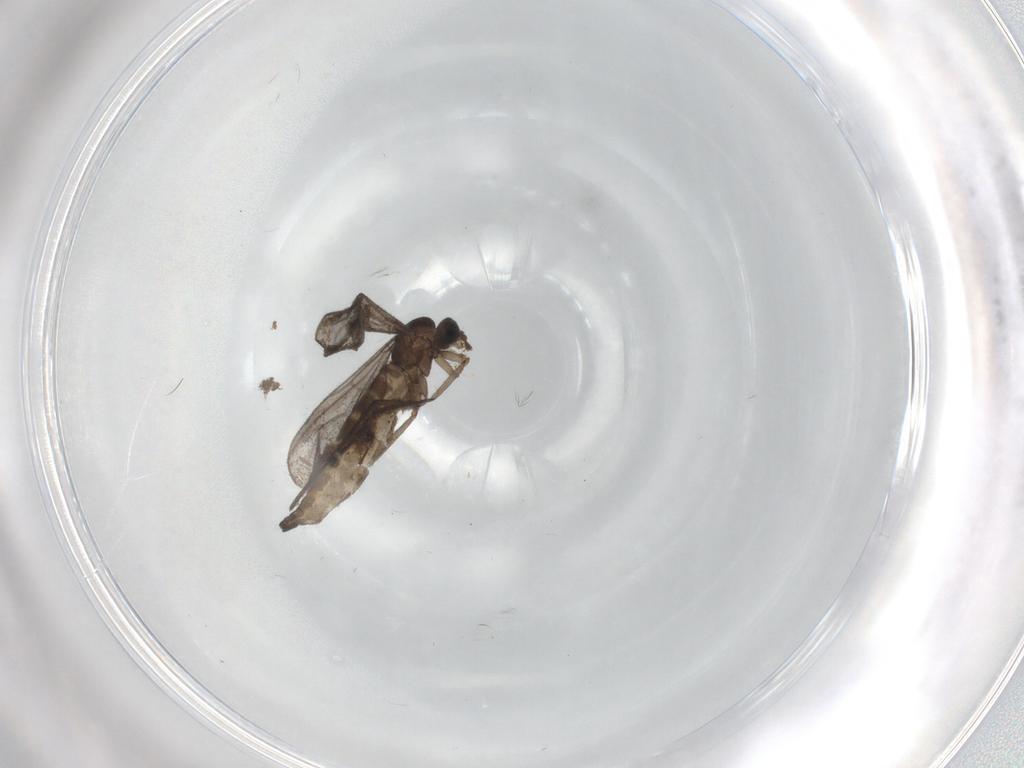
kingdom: Animalia
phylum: Arthropoda
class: Insecta
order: Diptera
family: Chironomidae
